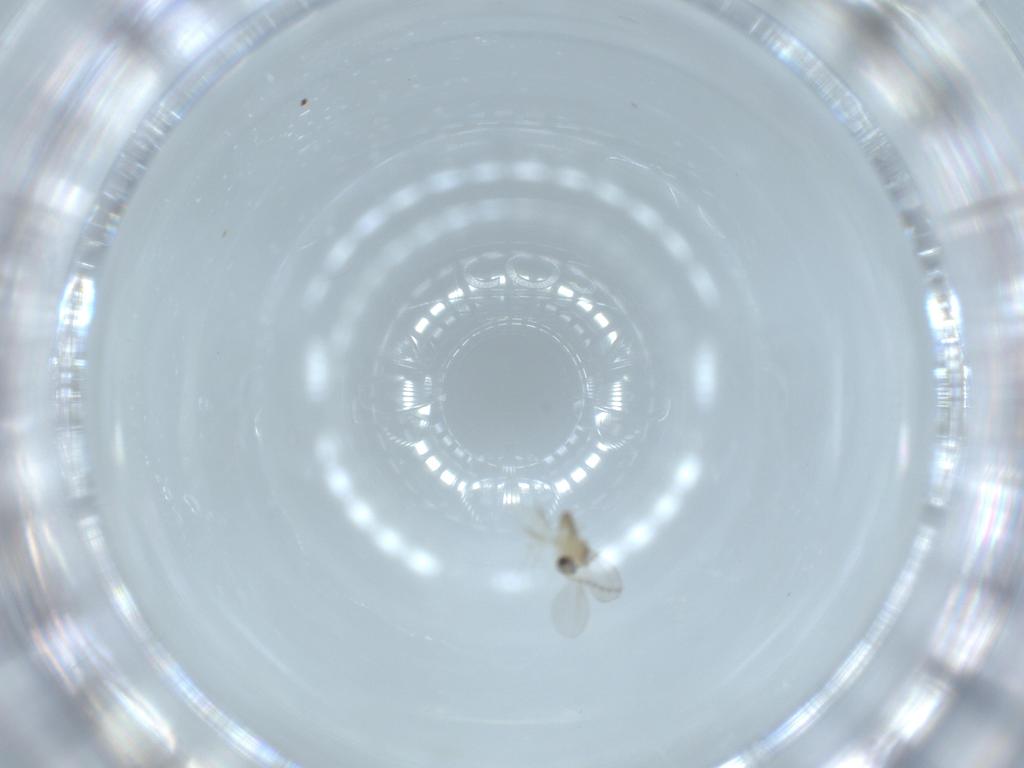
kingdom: Animalia
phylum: Arthropoda
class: Insecta
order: Diptera
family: Cecidomyiidae
